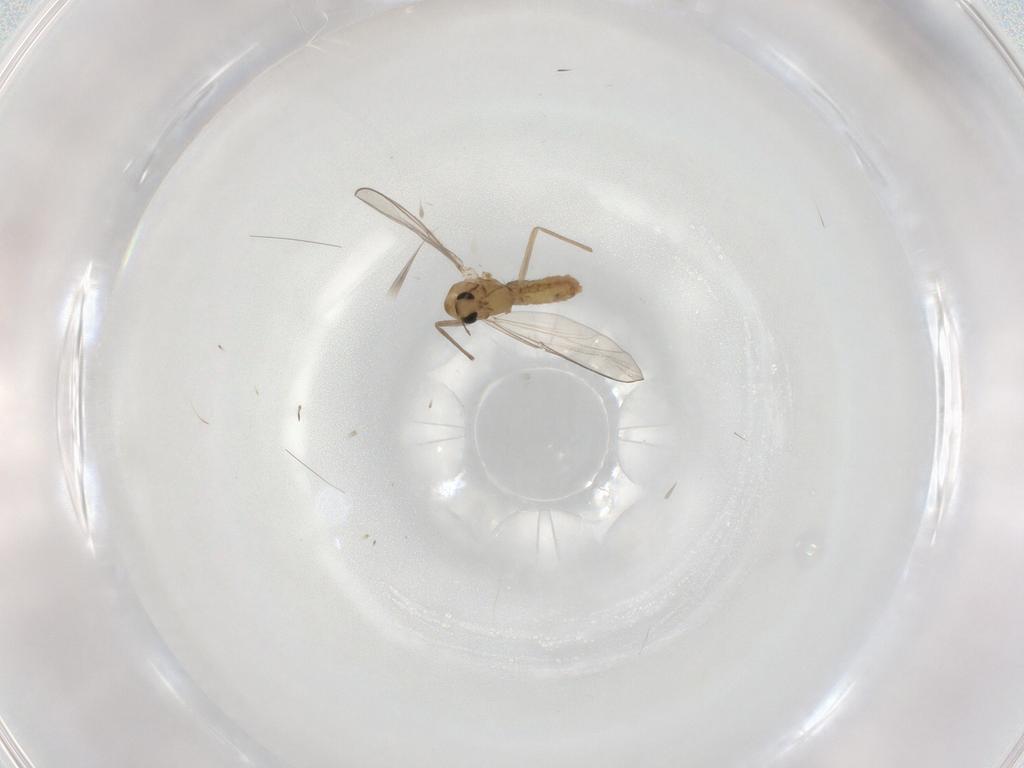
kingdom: Animalia
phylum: Arthropoda
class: Insecta
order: Diptera
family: Chironomidae
